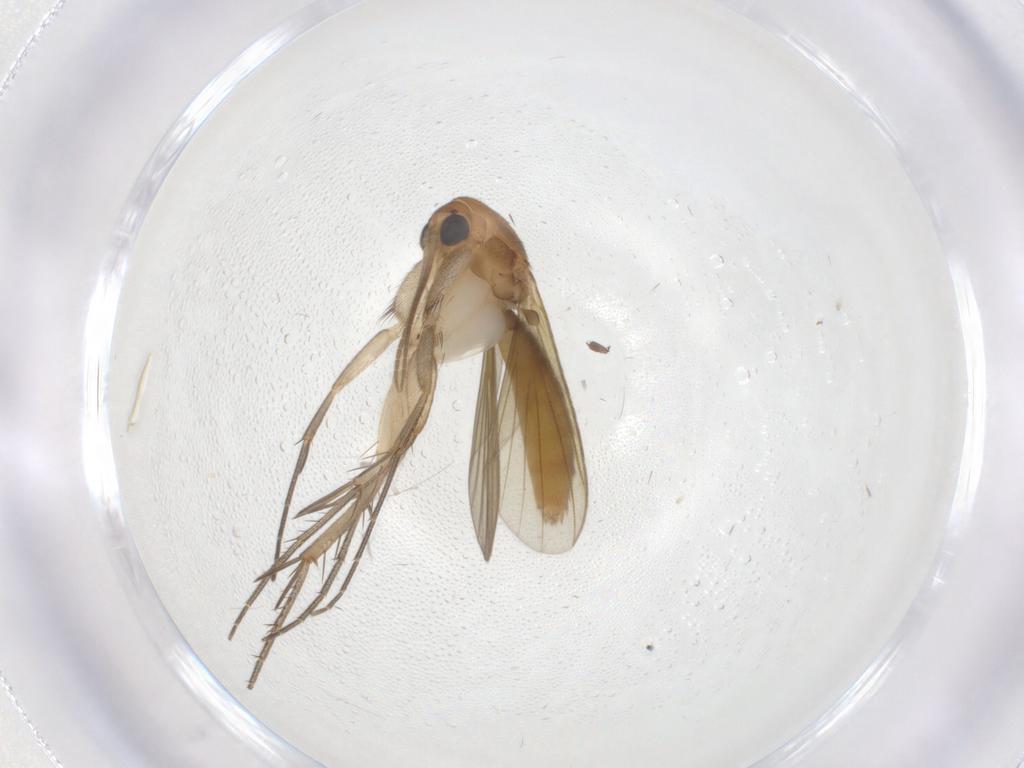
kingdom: Animalia
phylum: Arthropoda
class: Insecta
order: Diptera
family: Mycetophilidae
